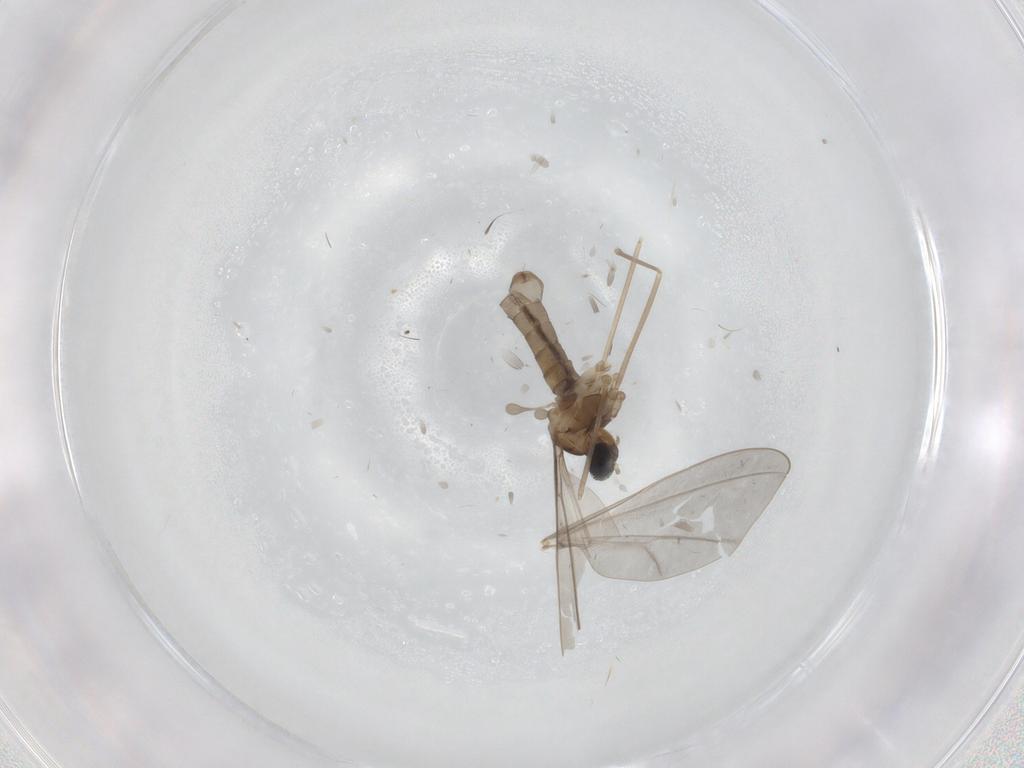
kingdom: Animalia
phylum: Arthropoda
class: Insecta
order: Diptera
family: Cecidomyiidae
